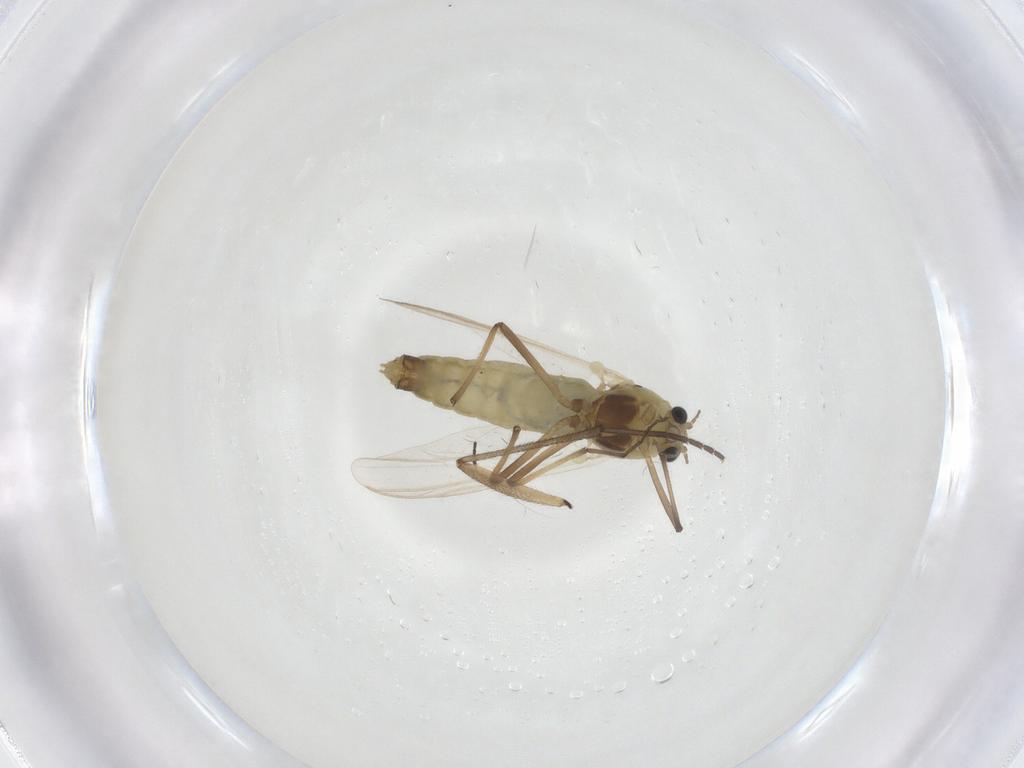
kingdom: Animalia
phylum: Arthropoda
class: Insecta
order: Diptera
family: Chironomidae
